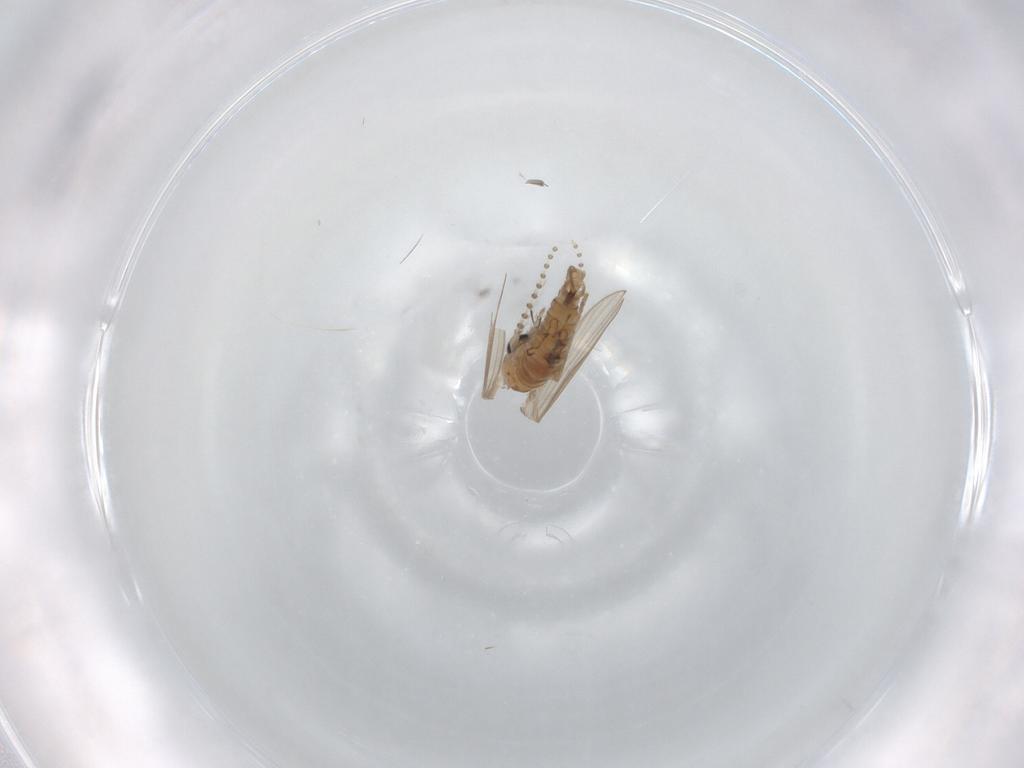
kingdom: Animalia
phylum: Arthropoda
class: Insecta
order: Diptera
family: Psychodidae
